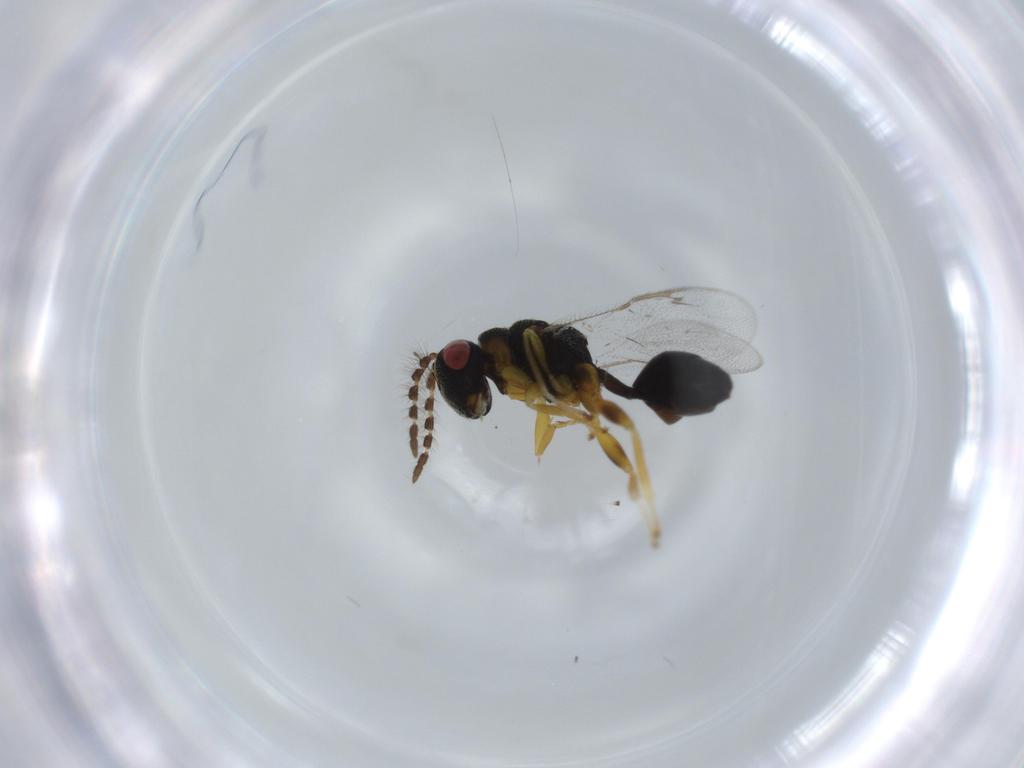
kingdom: Animalia
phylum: Arthropoda
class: Insecta
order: Hymenoptera
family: Eurytomidae
